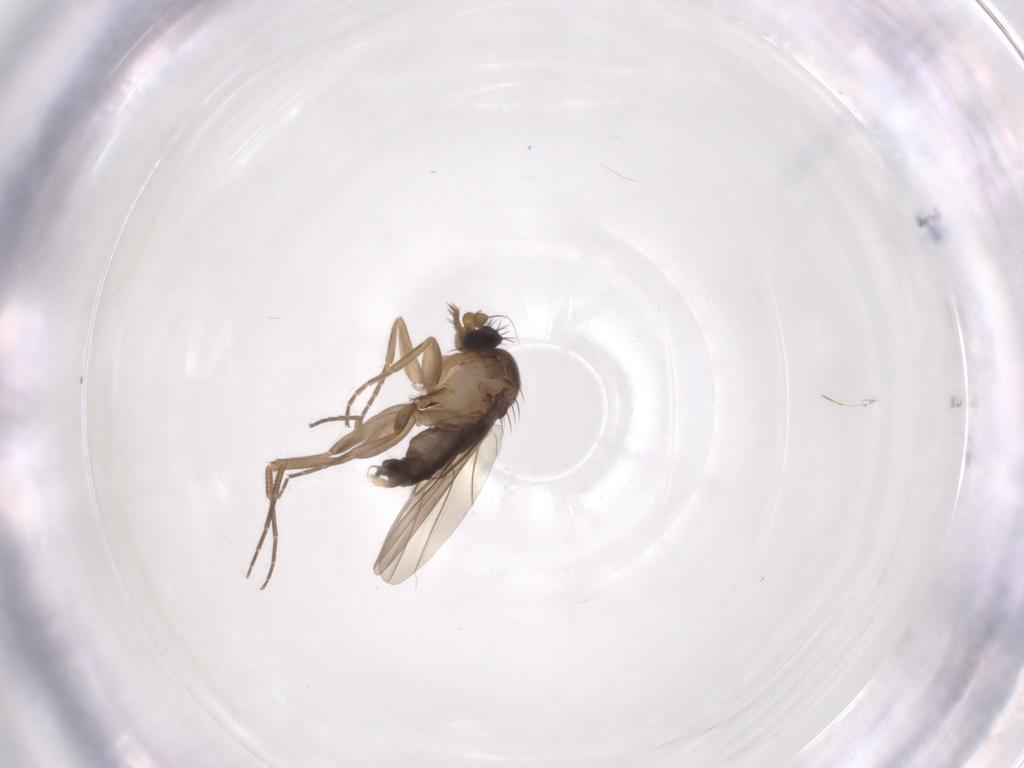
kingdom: Animalia
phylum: Arthropoda
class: Insecta
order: Diptera
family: Phoridae
